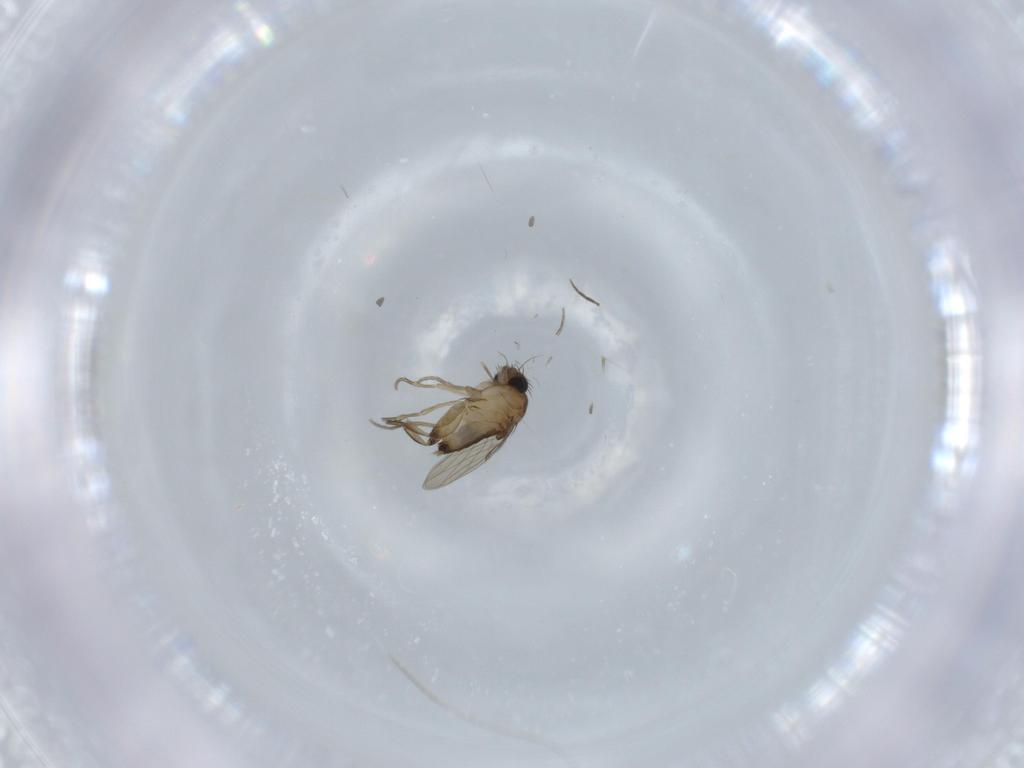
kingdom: Animalia
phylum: Arthropoda
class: Insecta
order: Diptera
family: Phoridae
